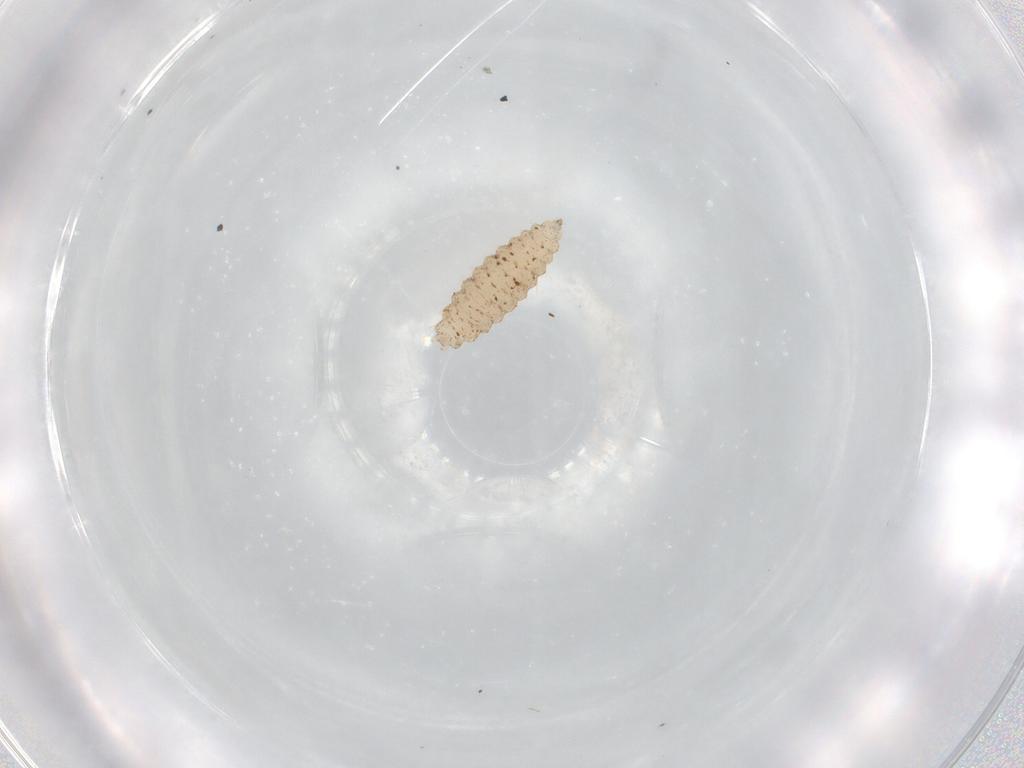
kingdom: Animalia
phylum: Arthropoda
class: Insecta
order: Diptera
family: Cecidomyiidae
